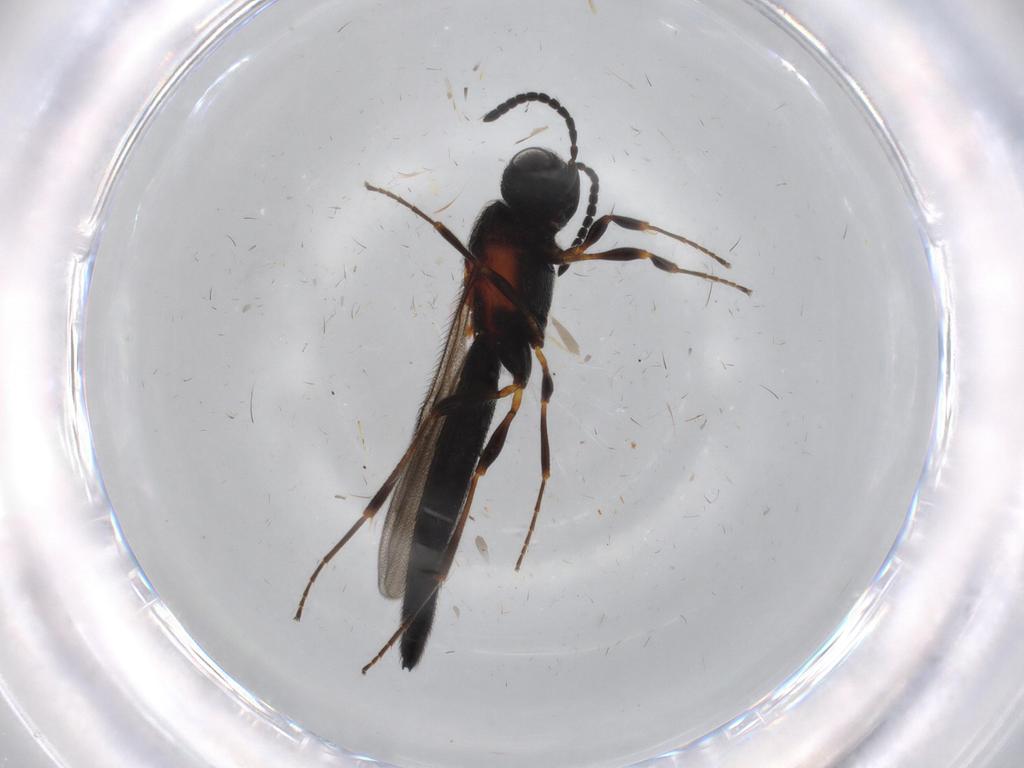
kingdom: Animalia
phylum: Arthropoda
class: Insecta
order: Hymenoptera
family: Scelionidae
